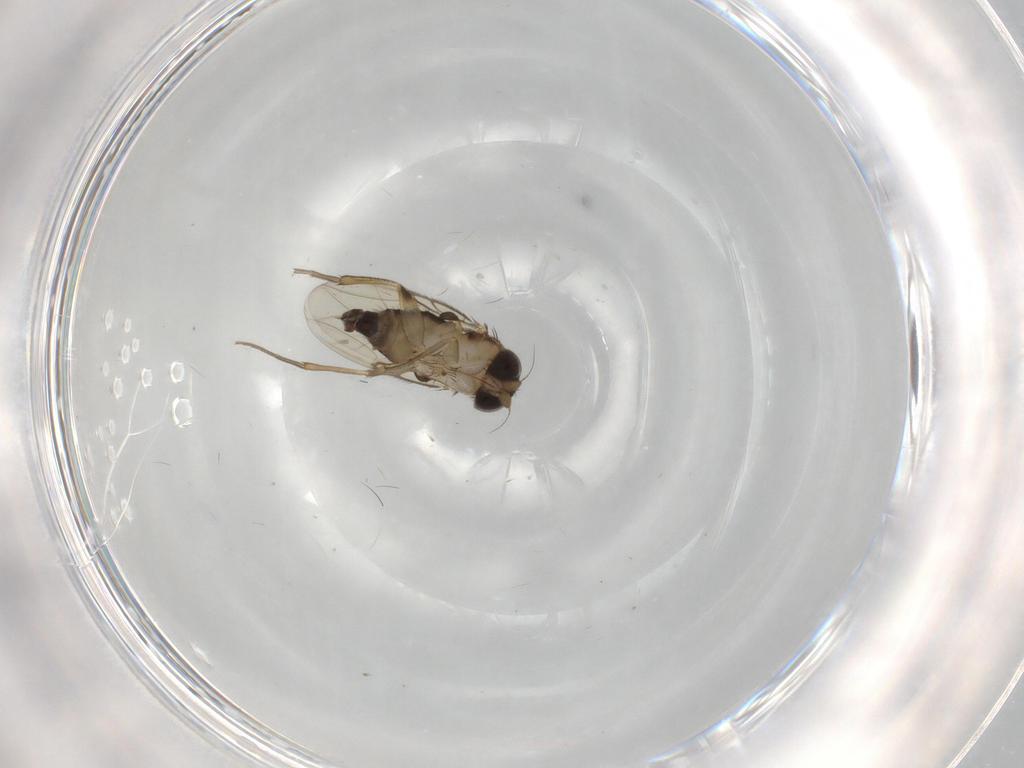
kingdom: Animalia
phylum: Arthropoda
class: Insecta
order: Diptera
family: Phoridae
